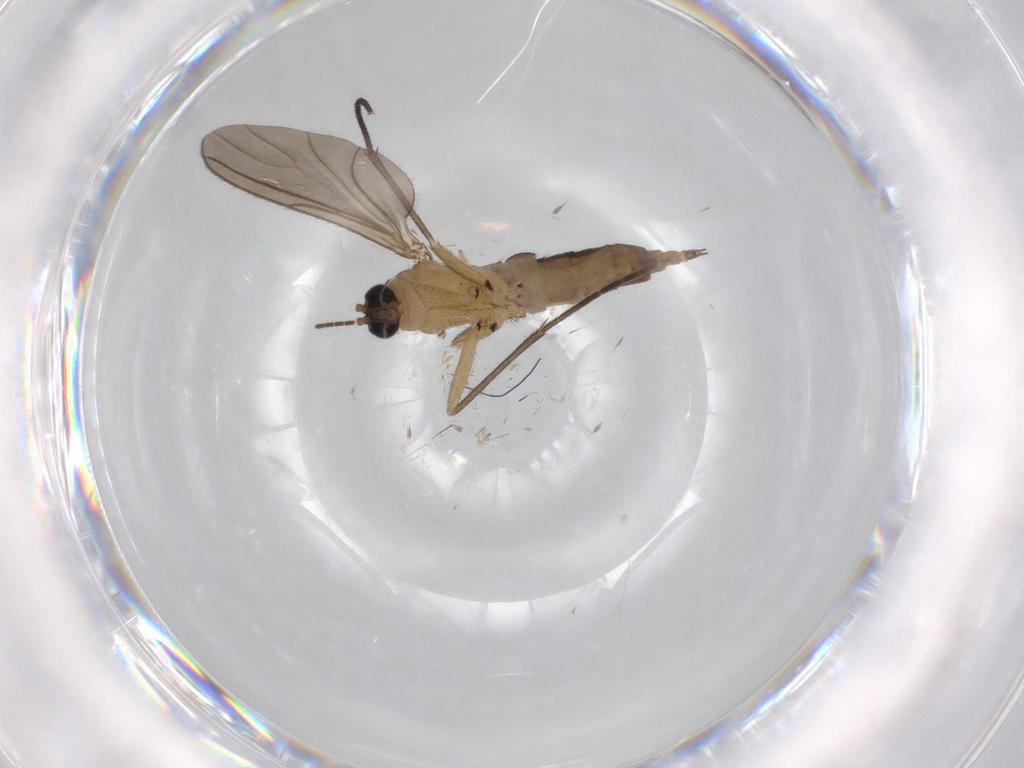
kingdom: Animalia
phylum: Arthropoda
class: Insecta
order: Diptera
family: Sciaridae
